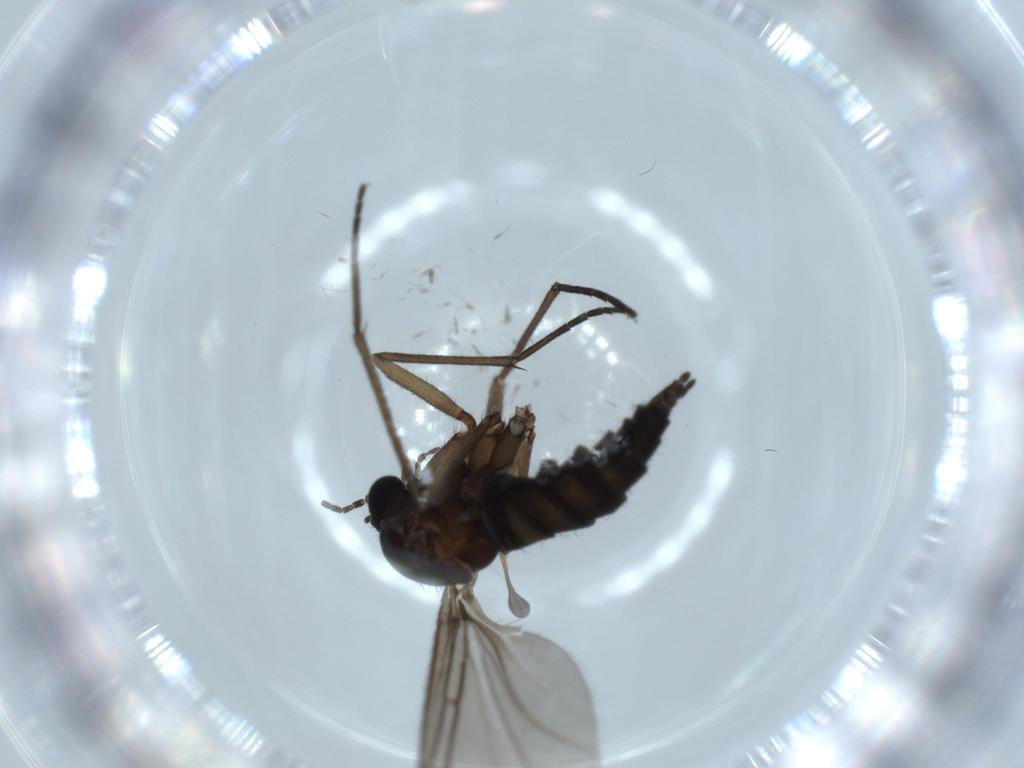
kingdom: Animalia
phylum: Arthropoda
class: Insecta
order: Diptera
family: Sciaridae
